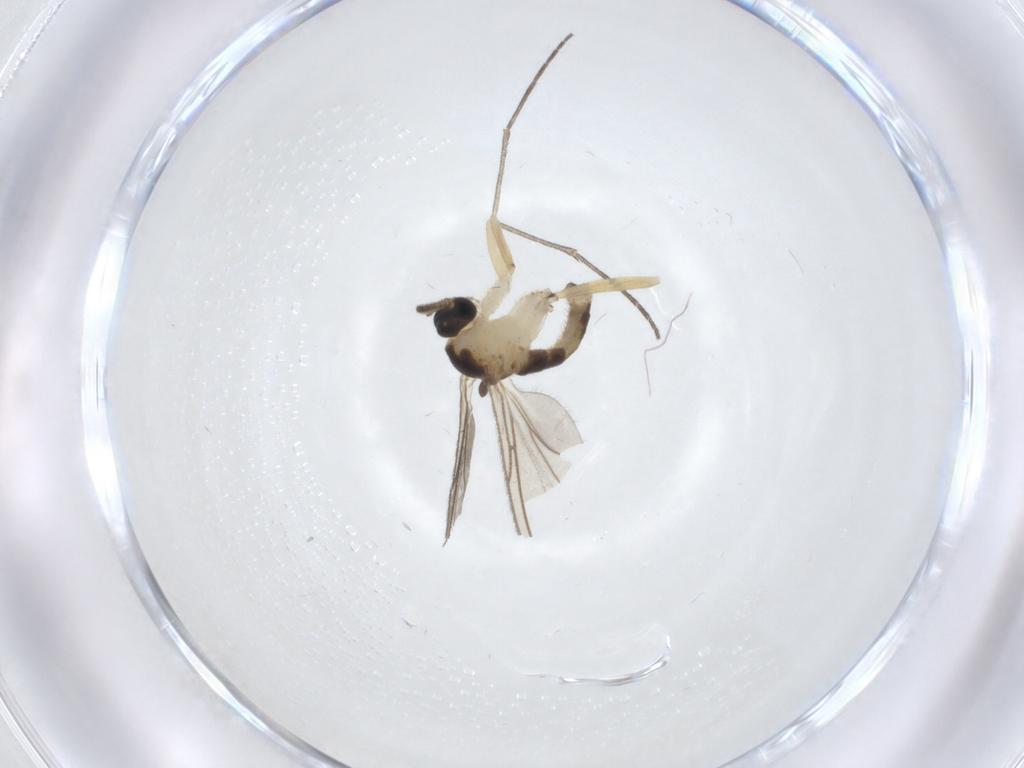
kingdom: Animalia
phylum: Arthropoda
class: Insecta
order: Diptera
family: Sciaridae
